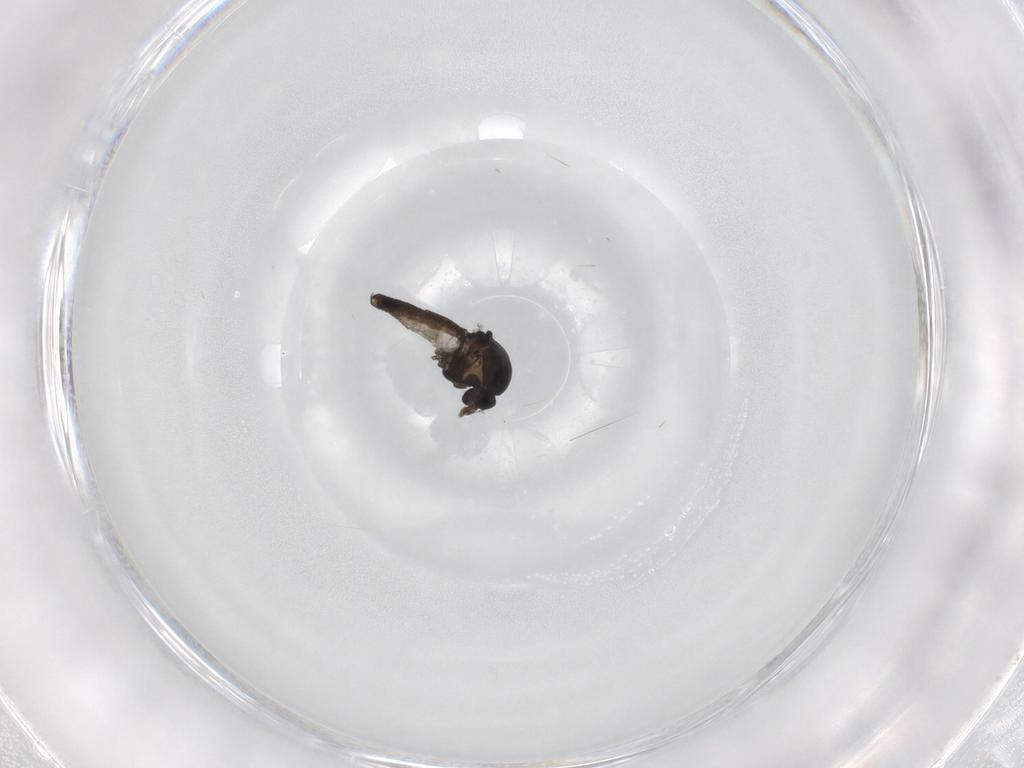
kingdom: Animalia
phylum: Arthropoda
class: Insecta
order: Diptera
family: Ceratopogonidae
